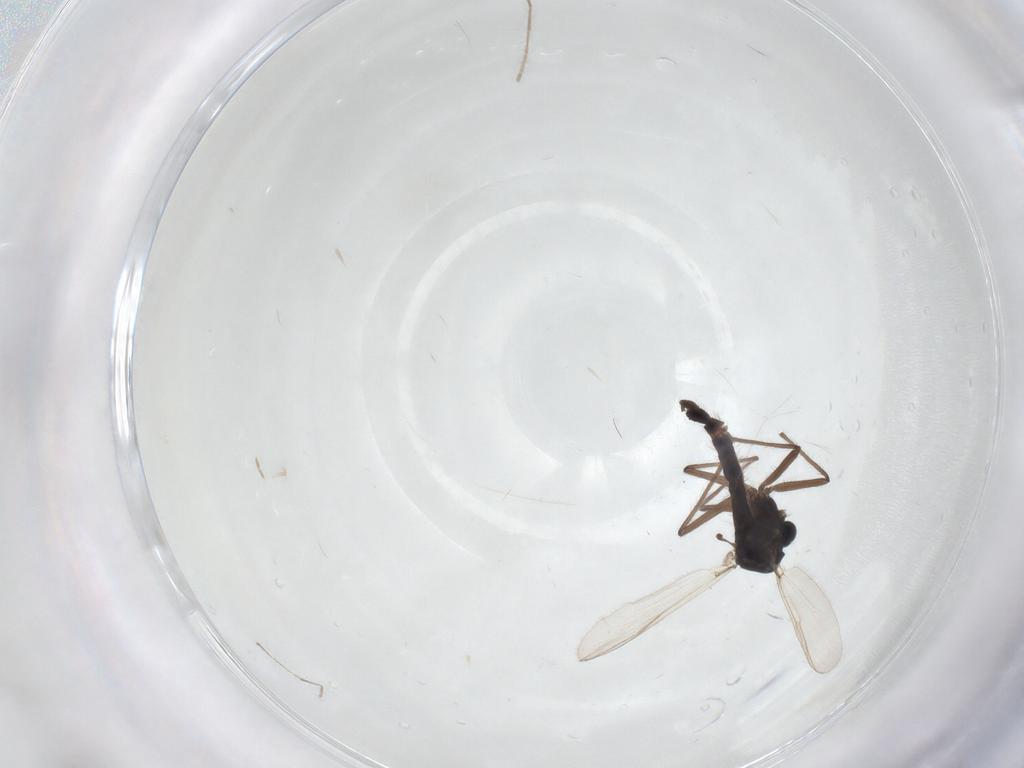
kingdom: Animalia
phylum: Arthropoda
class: Insecta
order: Diptera
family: Chironomidae
